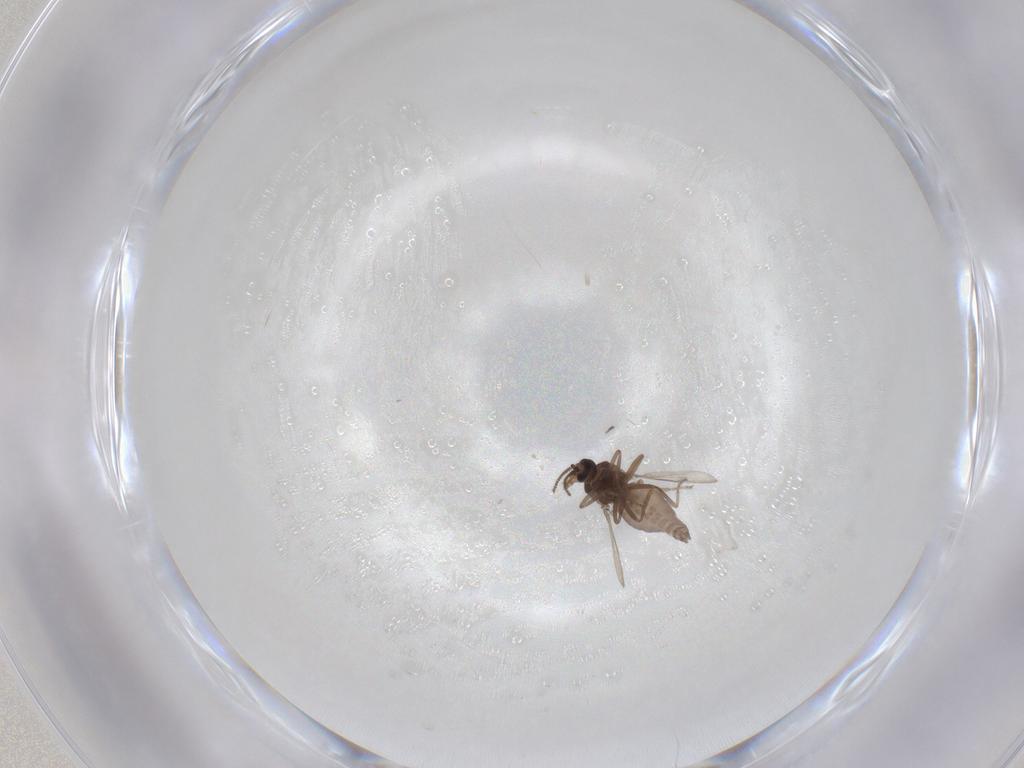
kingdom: Animalia
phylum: Arthropoda
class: Insecta
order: Diptera
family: Ceratopogonidae
